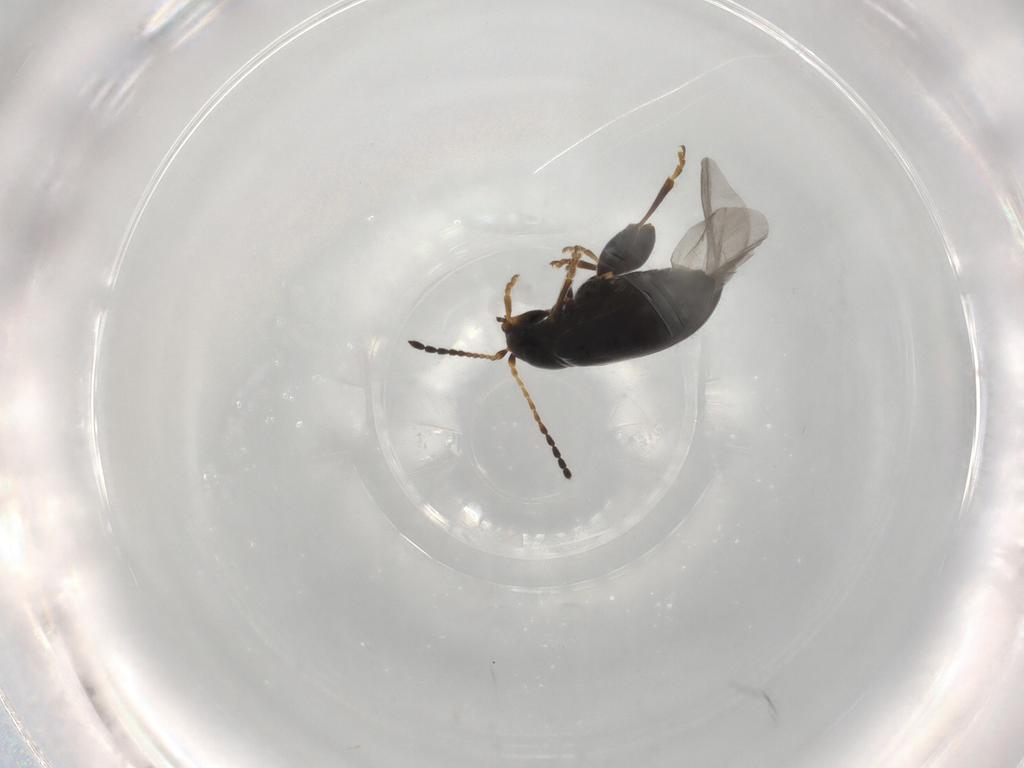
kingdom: Animalia
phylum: Arthropoda
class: Insecta
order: Coleoptera
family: Chrysomelidae
